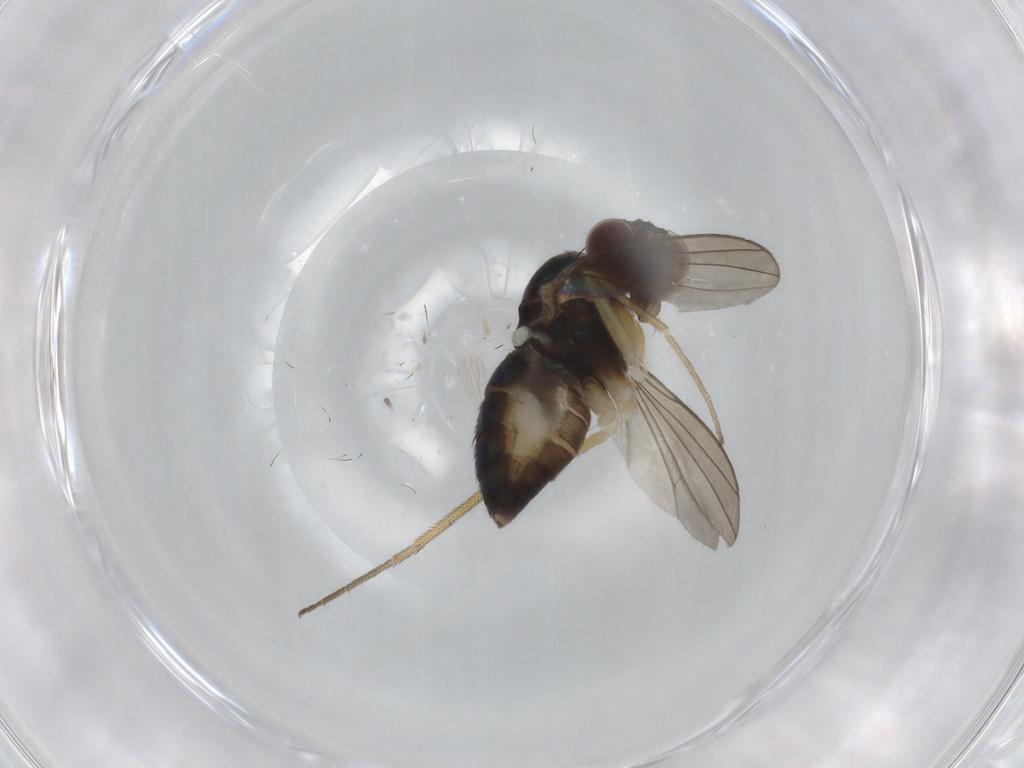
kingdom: Animalia
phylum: Arthropoda
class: Insecta
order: Diptera
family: Dolichopodidae
